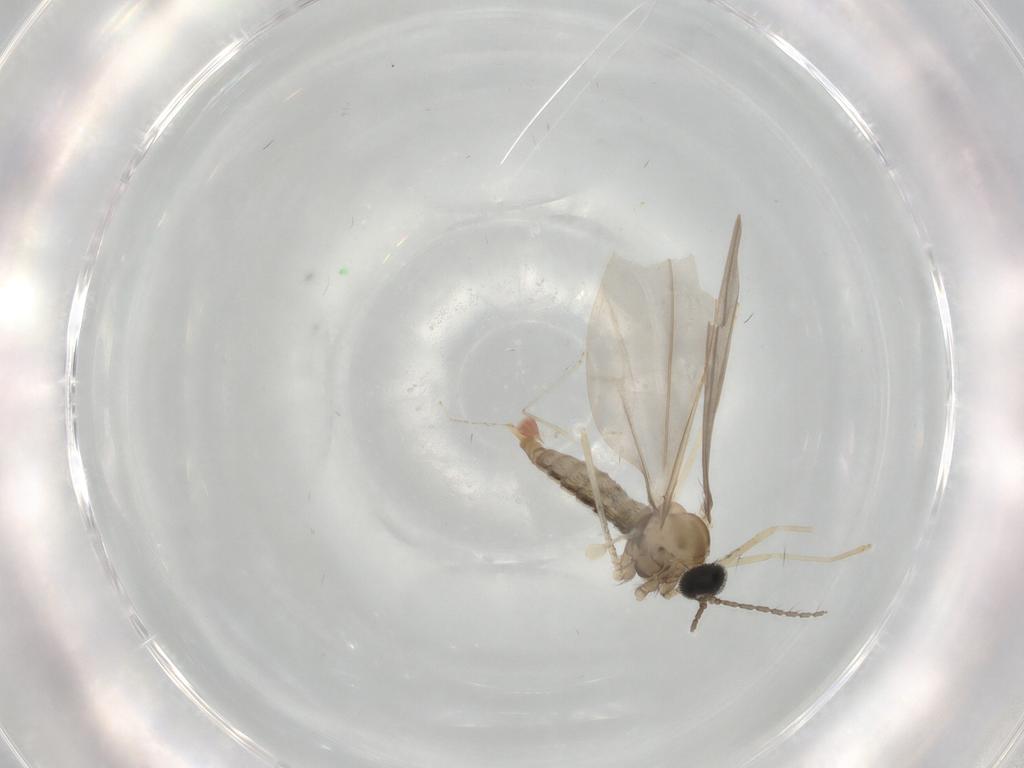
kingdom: Animalia
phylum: Arthropoda
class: Insecta
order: Diptera
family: Cecidomyiidae
